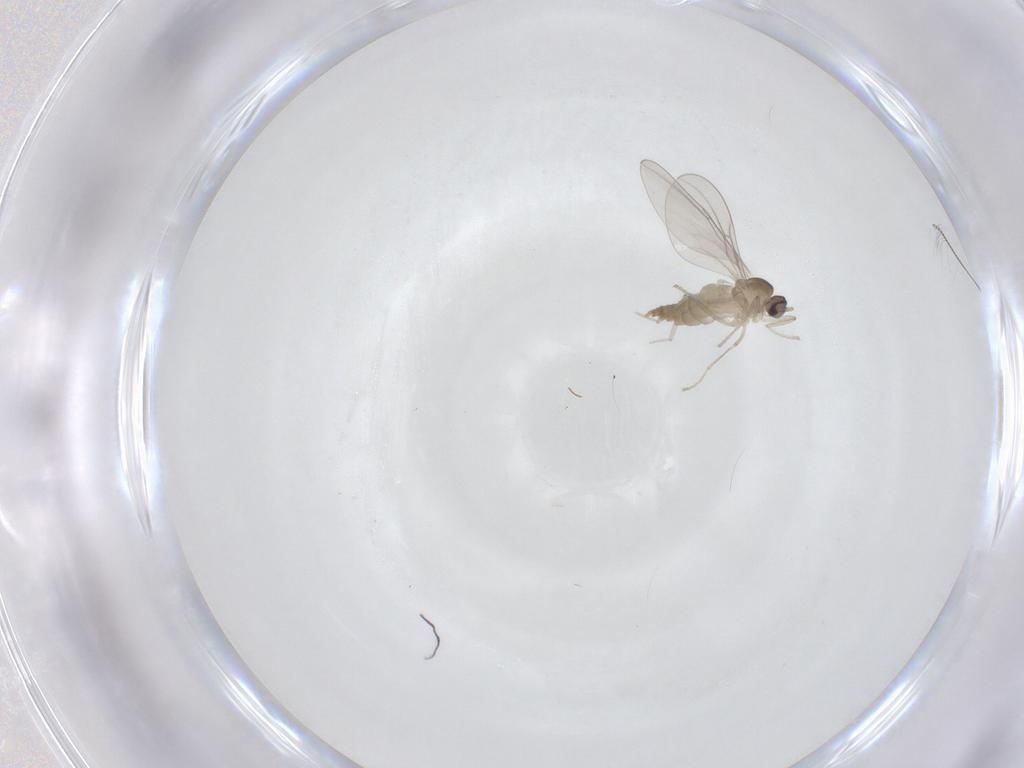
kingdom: Animalia
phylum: Arthropoda
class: Insecta
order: Diptera
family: Cecidomyiidae
